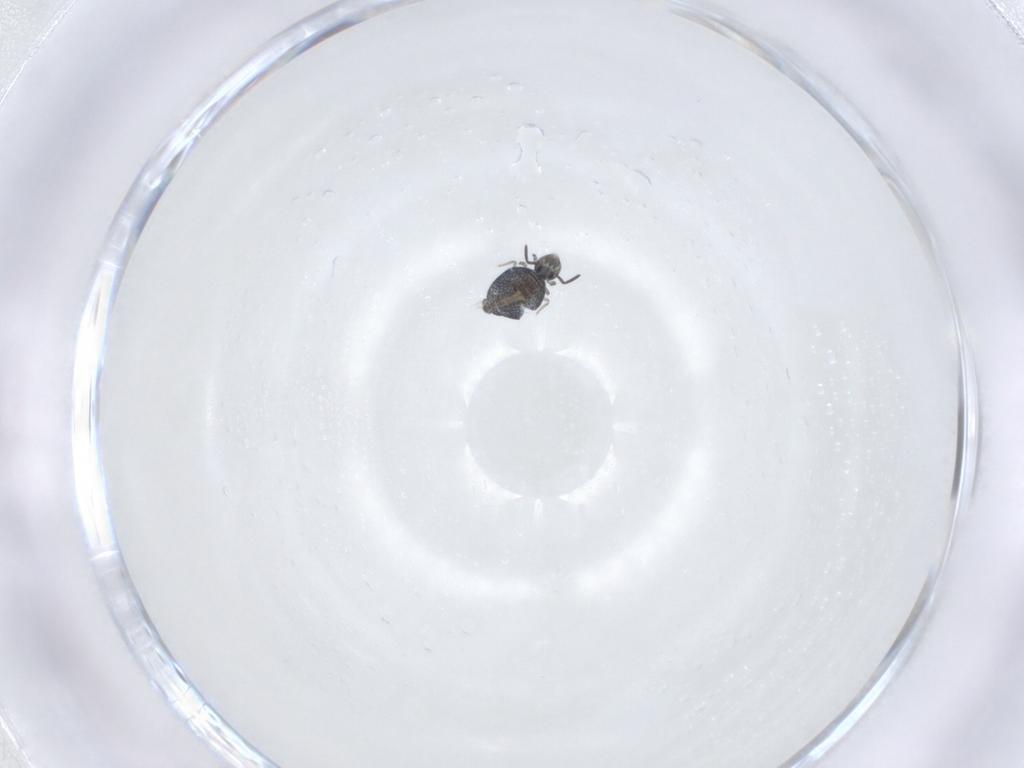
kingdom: Animalia
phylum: Arthropoda
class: Collembola
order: Symphypleona
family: Katiannidae
